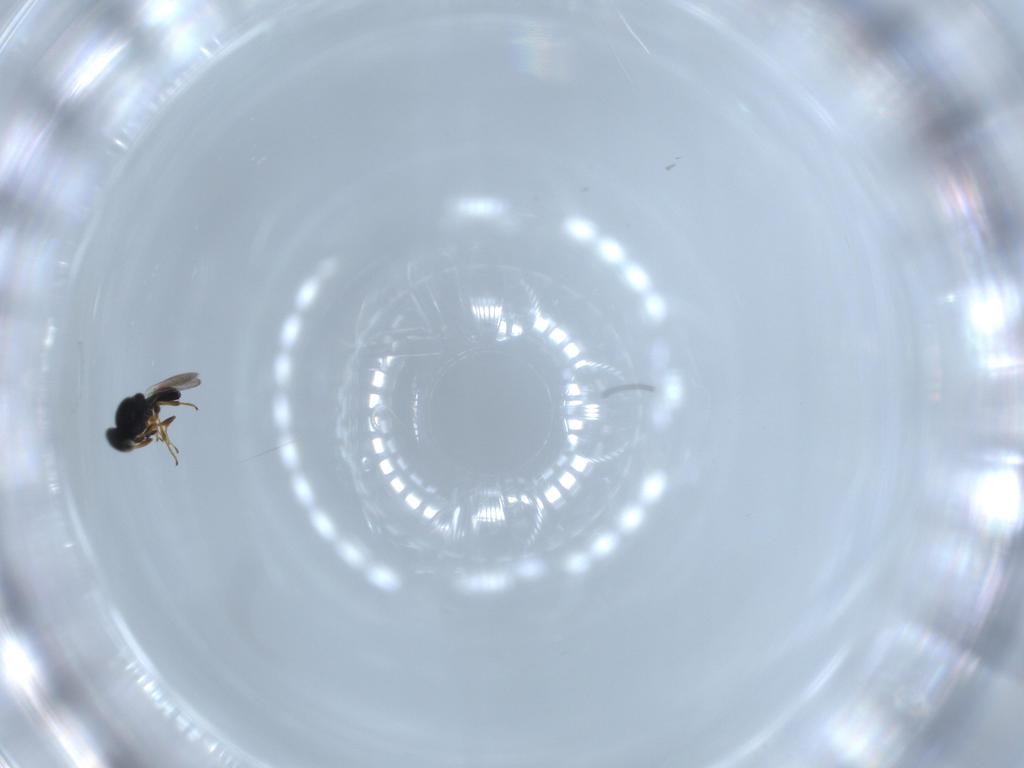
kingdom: Animalia
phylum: Arthropoda
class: Insecta
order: Hymenoptera
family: Platygastridae
